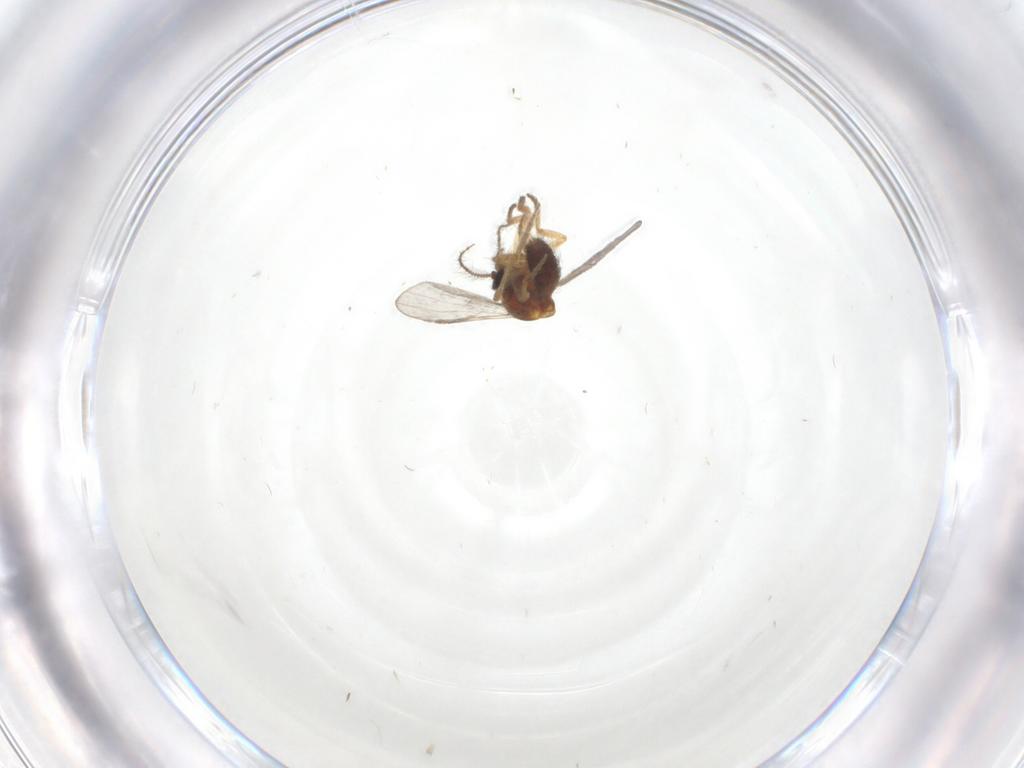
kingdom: Animalia
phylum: Arthropoda
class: Insecta
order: Diptera
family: Ceratopogonidae
